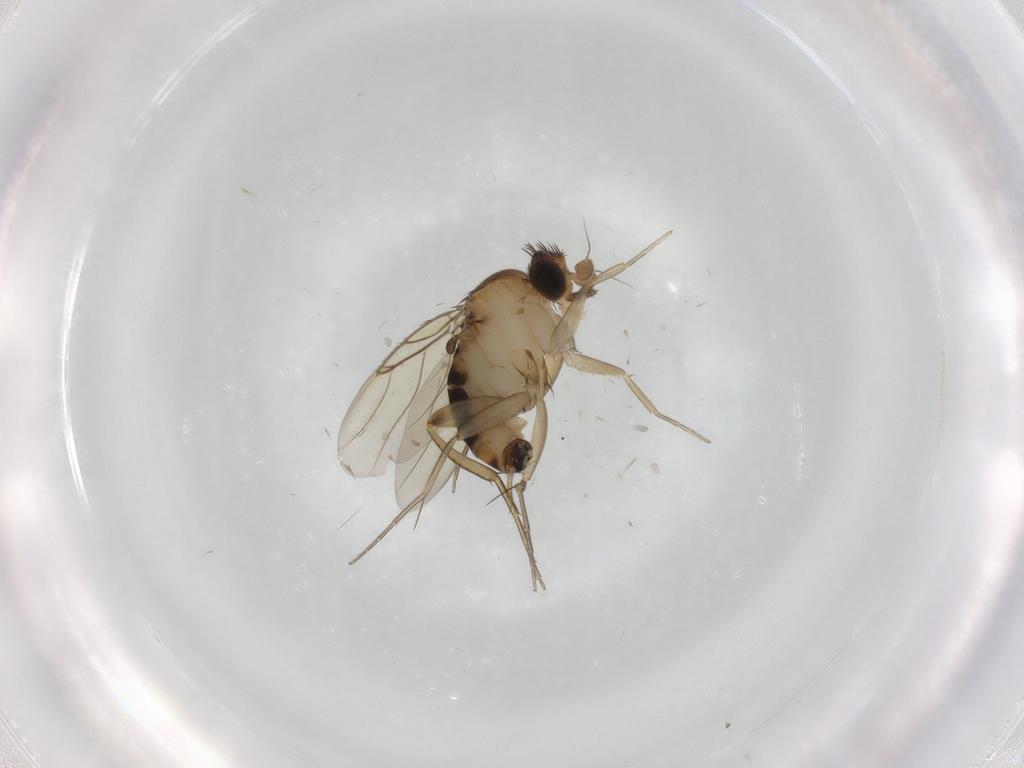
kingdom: Animalia
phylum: Arthropoda
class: Insecta
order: Diptera
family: Phoridae
